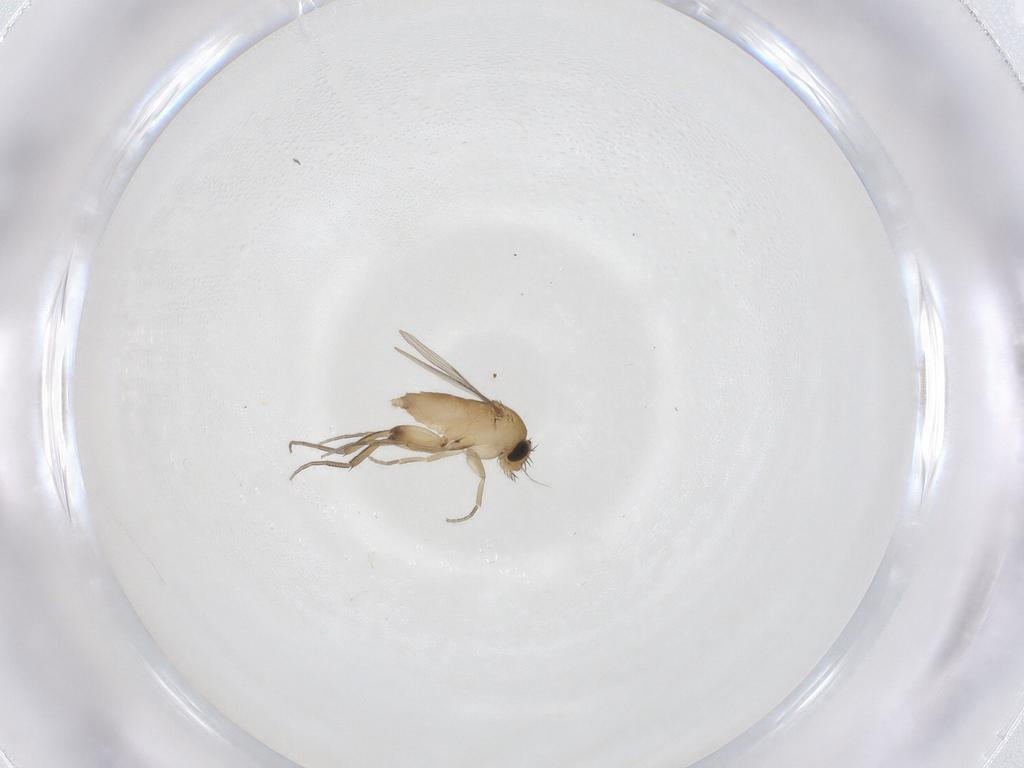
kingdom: Animalia
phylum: Arthropoda
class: Insecta
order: Diptera
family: Phoridae
